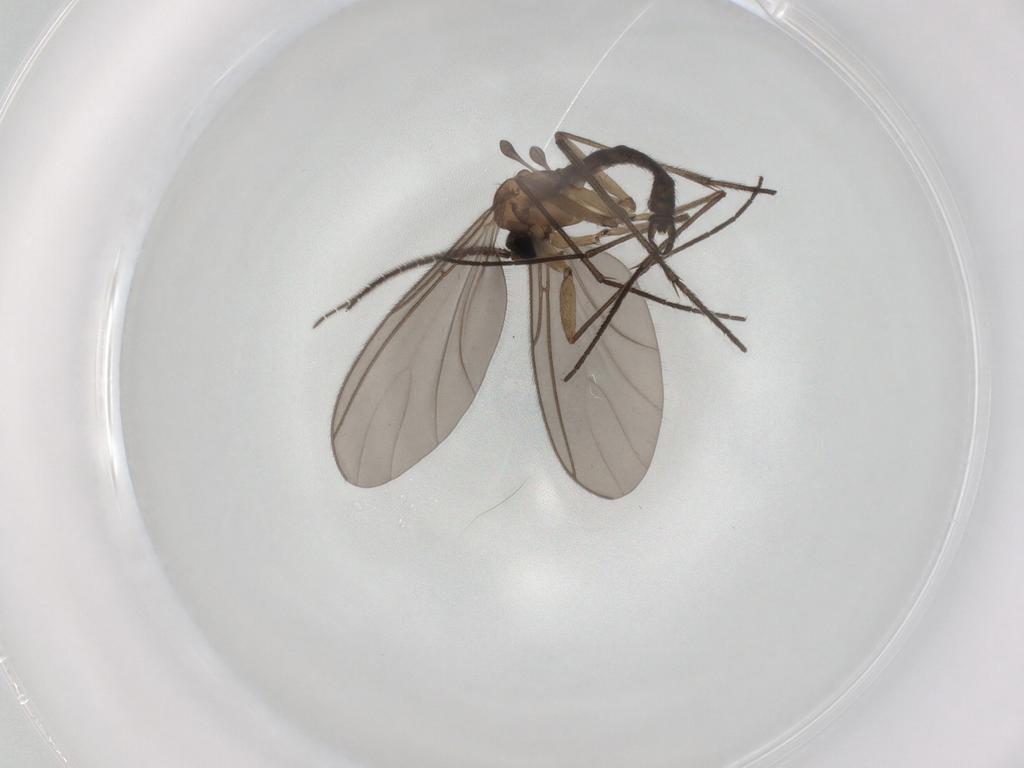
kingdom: Animalia
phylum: Arthropoda
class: Insecta
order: Diptera
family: Sciaridae
